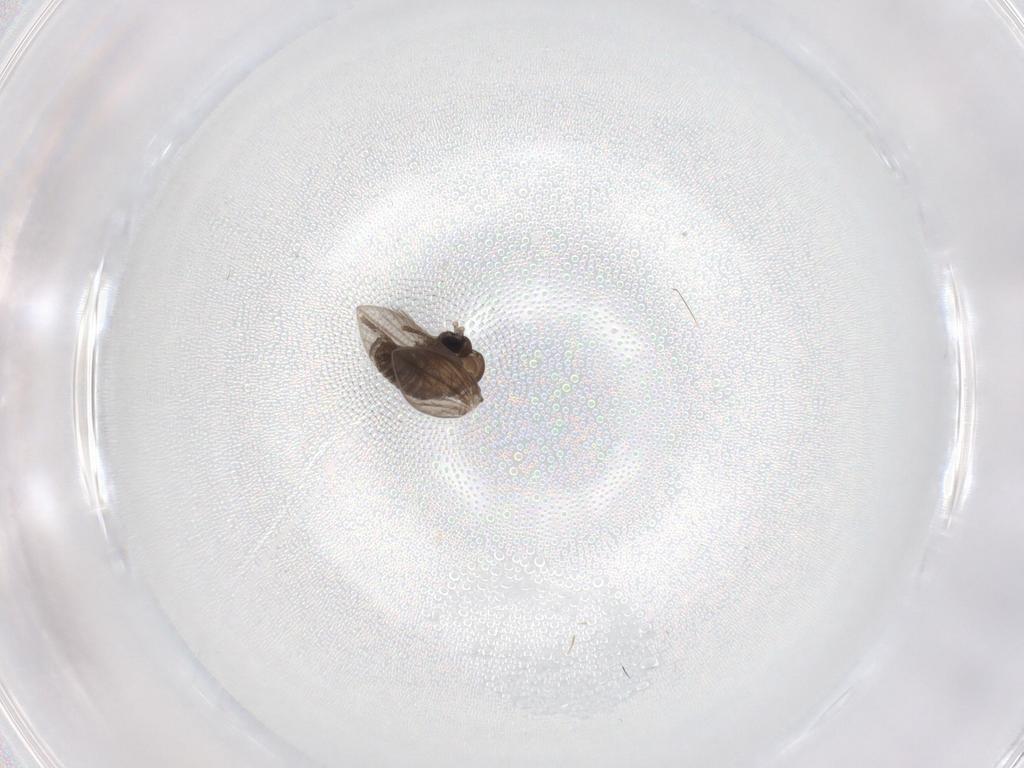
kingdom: Animalia
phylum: Arthropoda
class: Insecta
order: Diptera
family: Psychodidae
